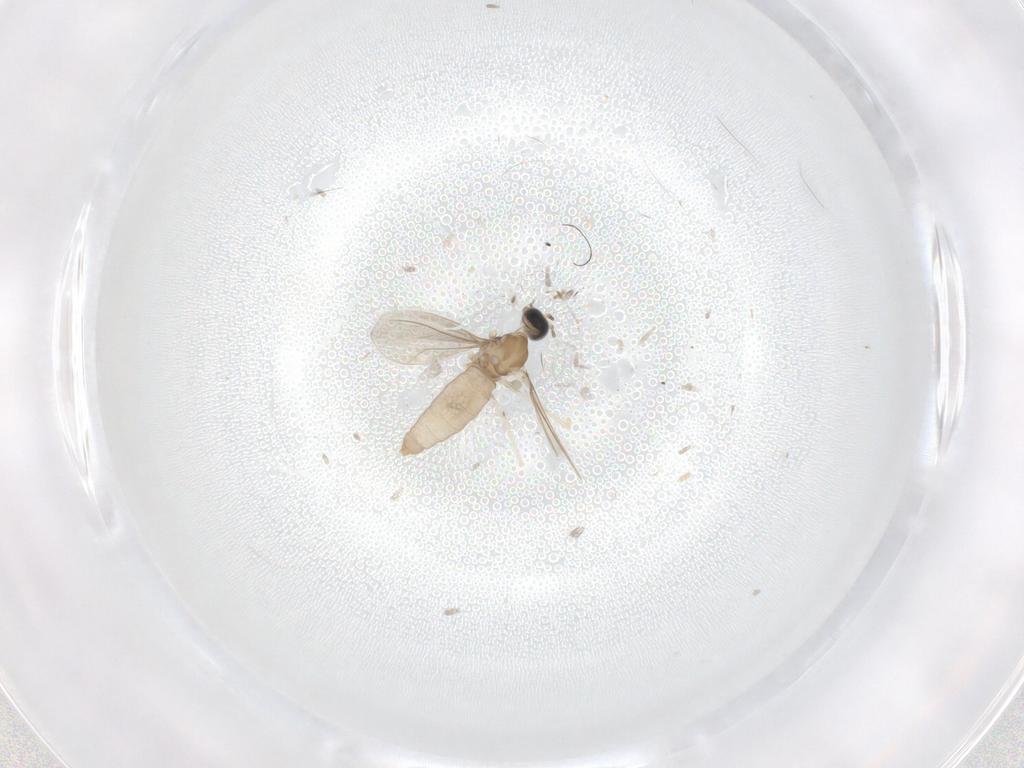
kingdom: Animalia
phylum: Arthropoda
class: Insecta
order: Diptera
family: Cecidomyiidae
